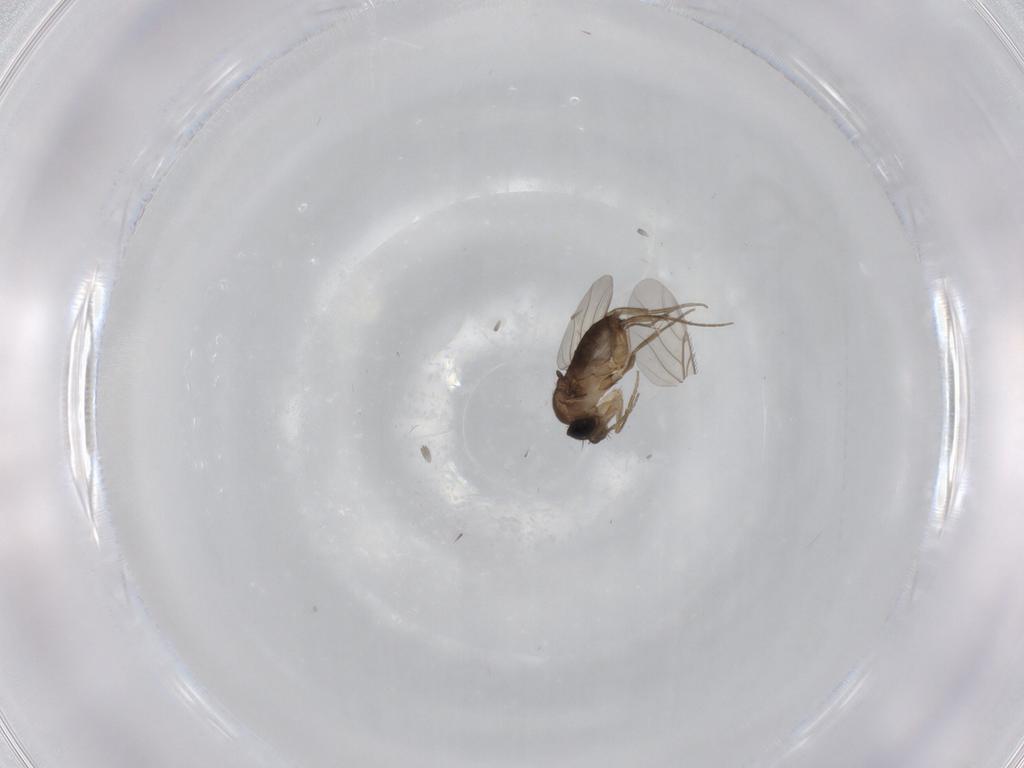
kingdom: Animalia
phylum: Arthropoda
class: Insecta
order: Diptera
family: Phoridae
